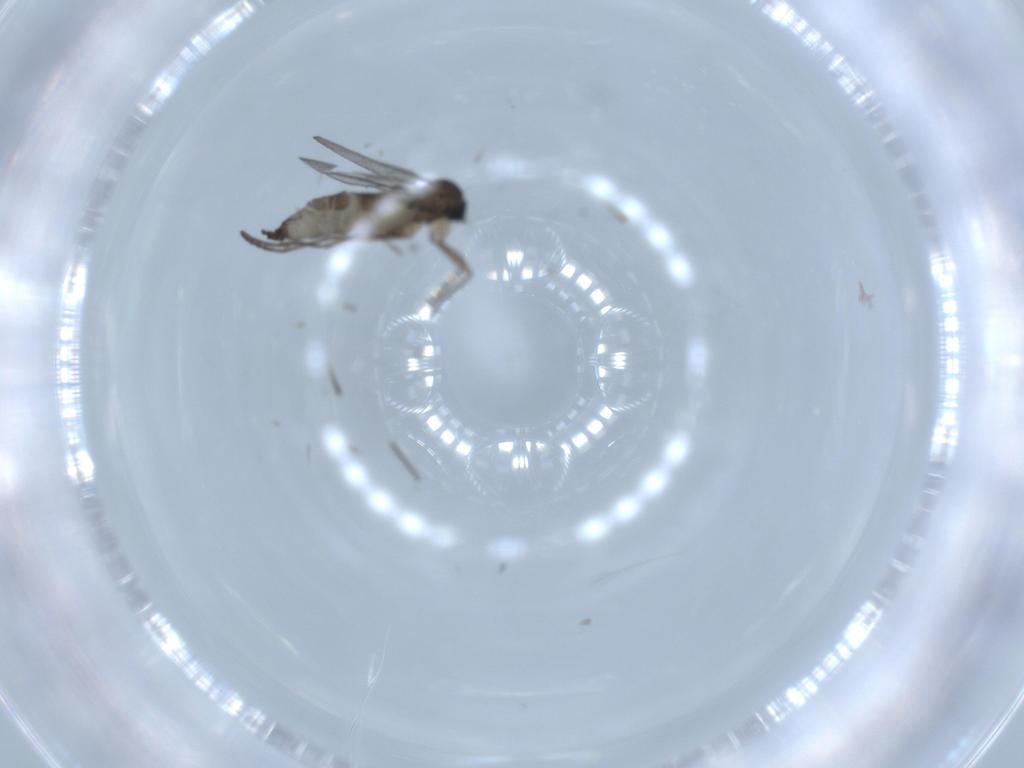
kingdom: Animalia
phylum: Arthropoda
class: Insecta
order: Diptera
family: Hybotidae
